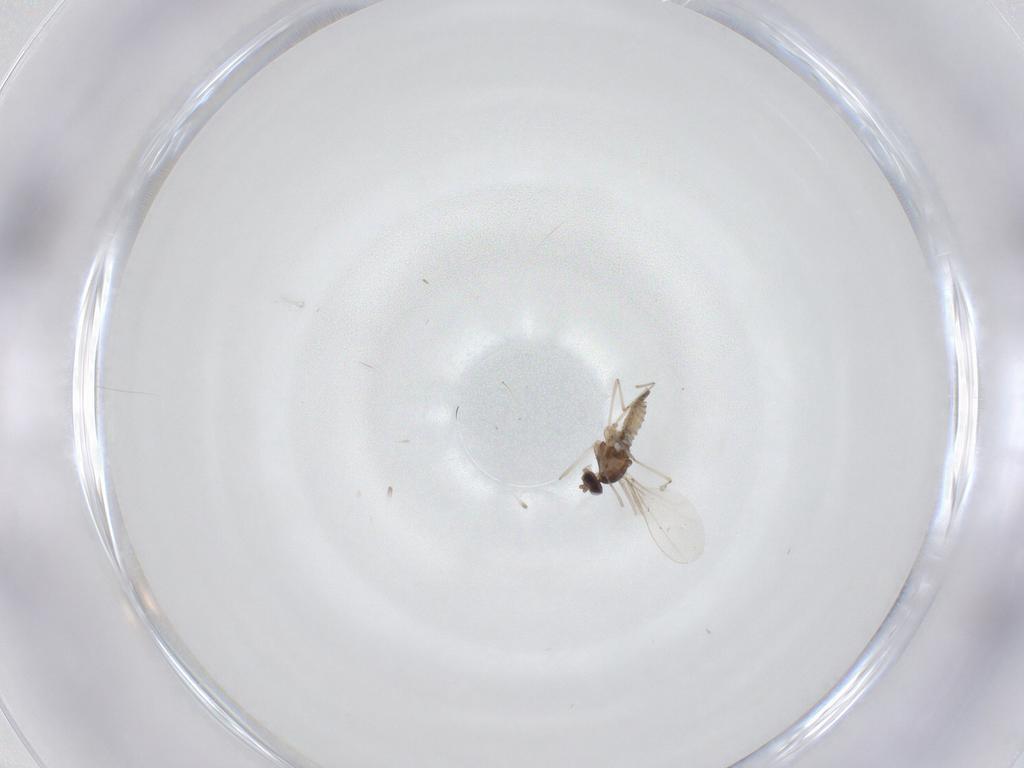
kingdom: Animalia
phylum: Arthropoda
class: Insecta
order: Diptera
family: Cecidomyiidae
